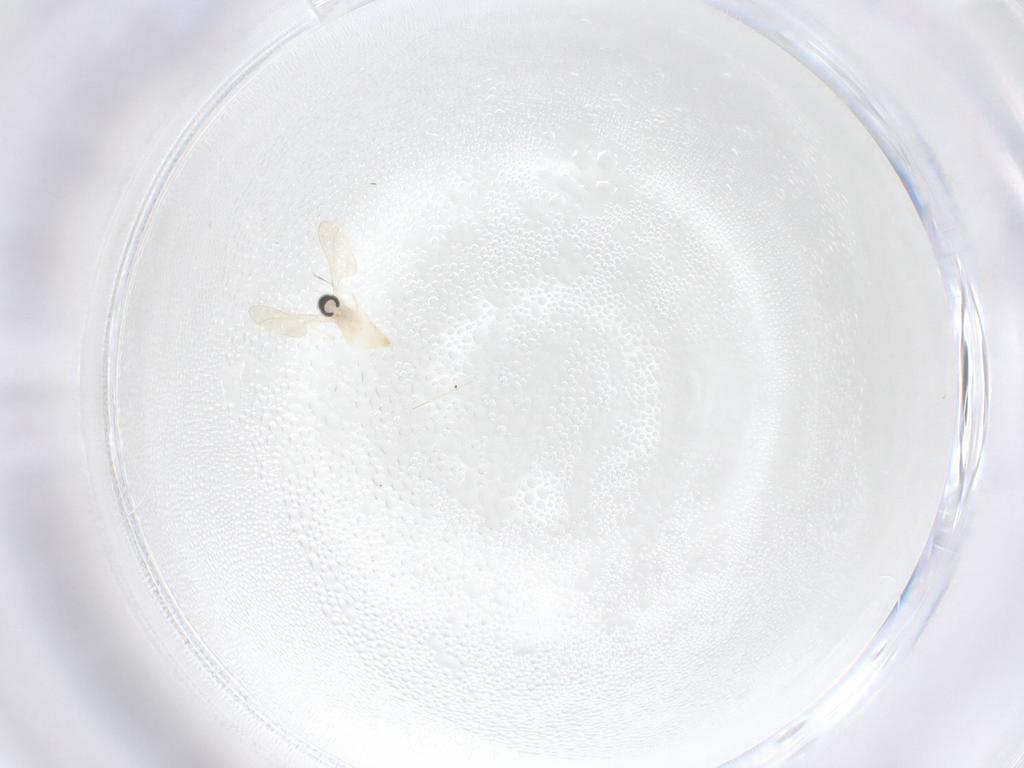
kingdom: Animalia
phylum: Arthropoda
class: Insecta
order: Diptera
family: Cecidomyiidae
